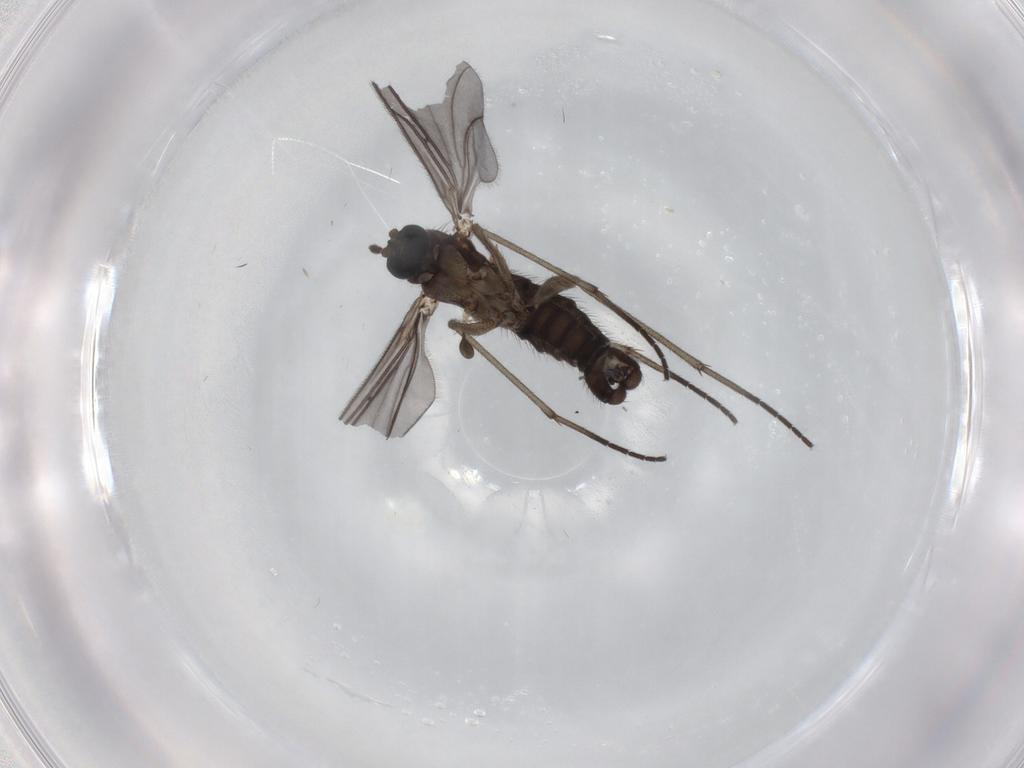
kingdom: Animalia
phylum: Arthropoda
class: Insecta
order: Diptera
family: Sciaridae
